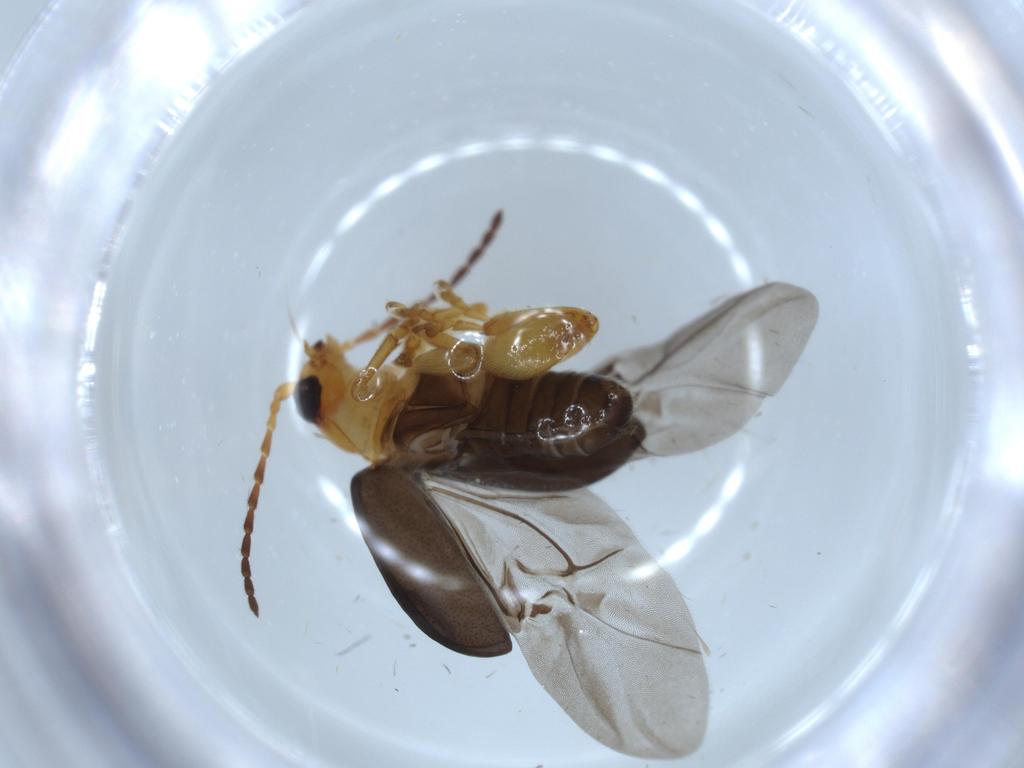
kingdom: Animalia
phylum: Arthropoda
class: Insecta
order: Coleoptera
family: Chrysomelidae
